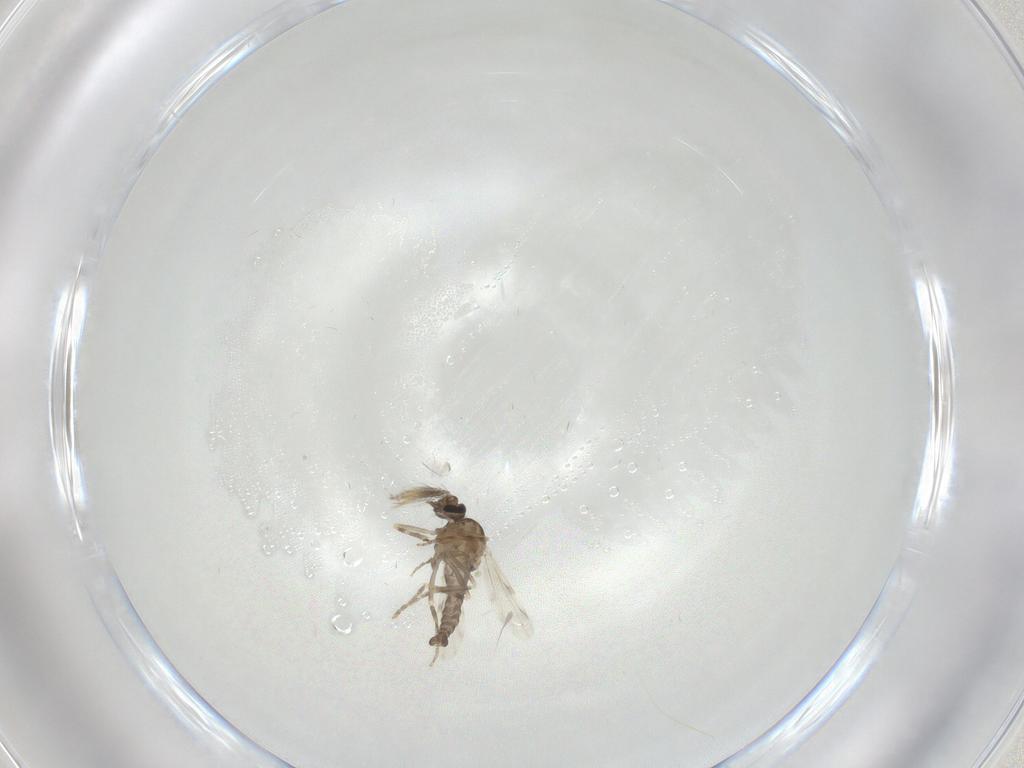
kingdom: Animalia
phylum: Arthropoda
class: Insecta
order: Diptera
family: Ceratopogonidae
